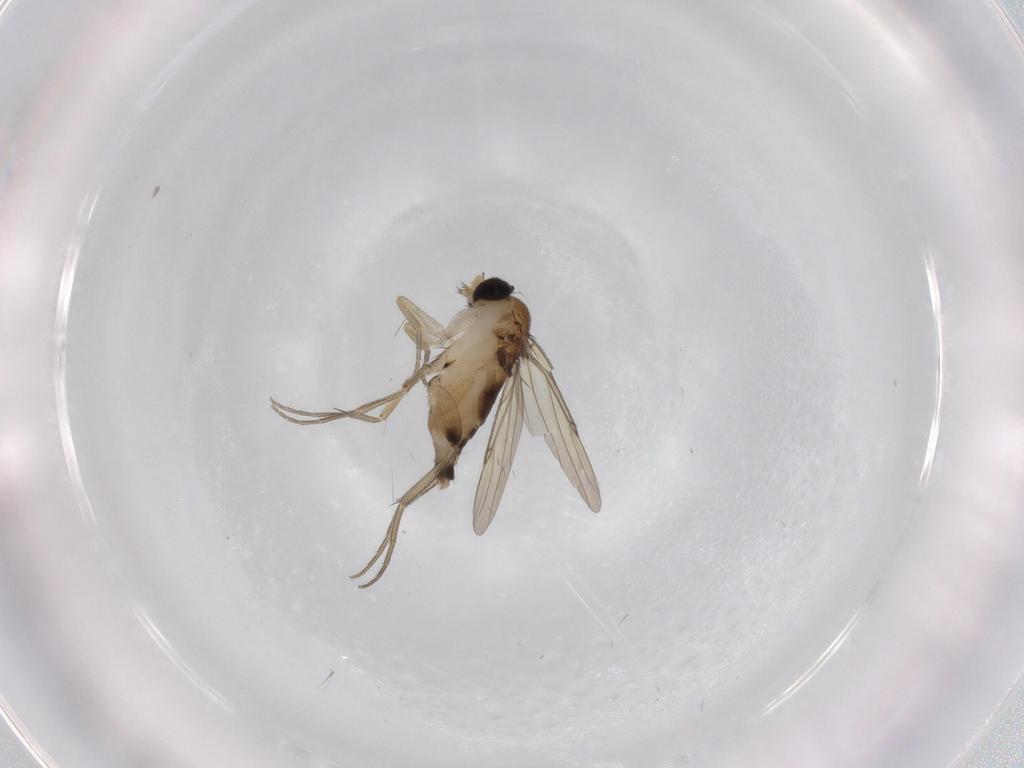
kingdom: Animalia
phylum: Arthropoda
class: Insecta
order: Diptera
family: Phoridae
